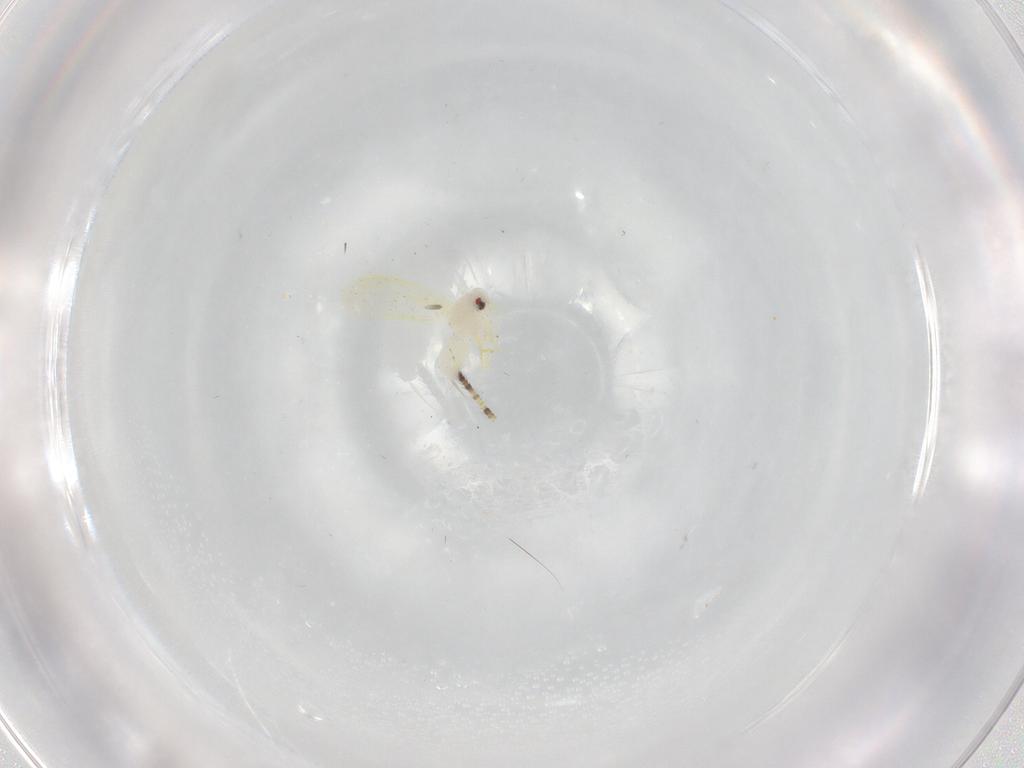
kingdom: Animalia
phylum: Arthropoda
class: Insecta
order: Hemiptera
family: Aleyrodidae
